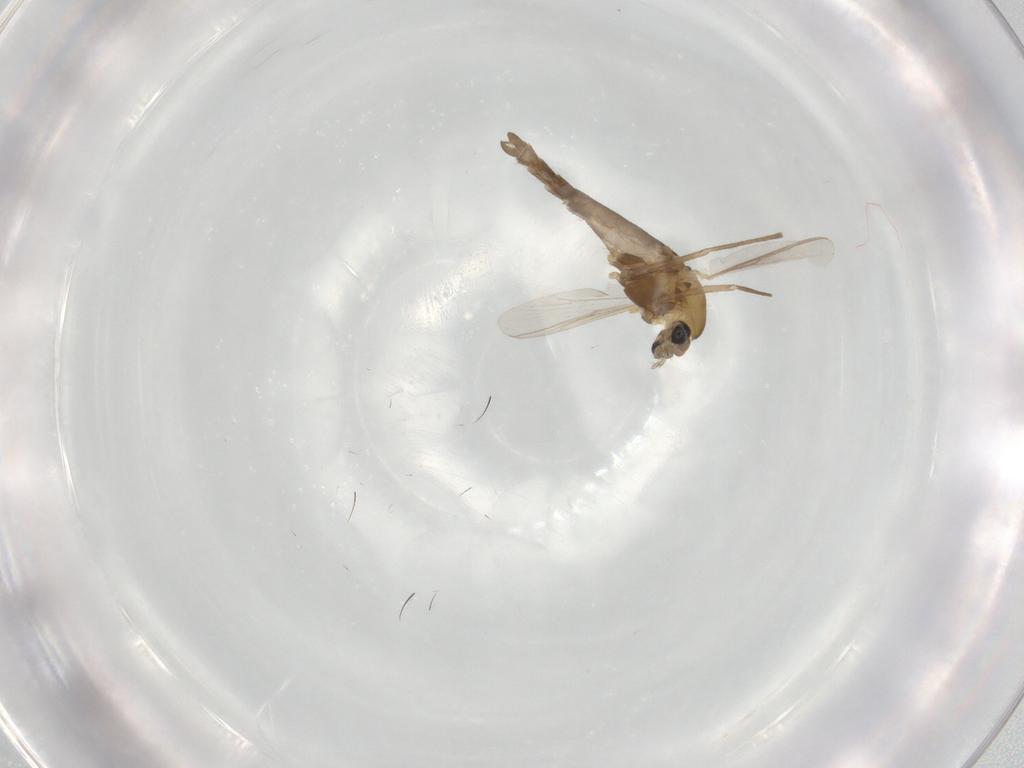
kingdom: Animalia
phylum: Arthropoda
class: Insecta
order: Diptera
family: Chironomidae
